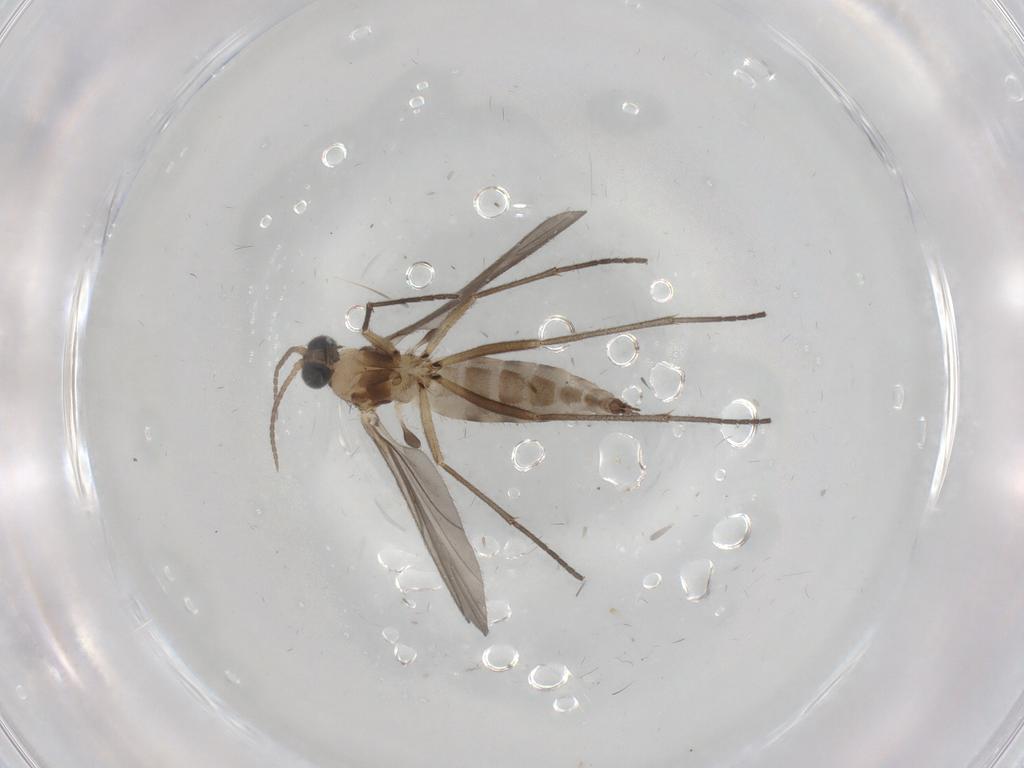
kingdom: Animalia
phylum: Arthropoda
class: Insecta
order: Diptera
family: Sciaridae
